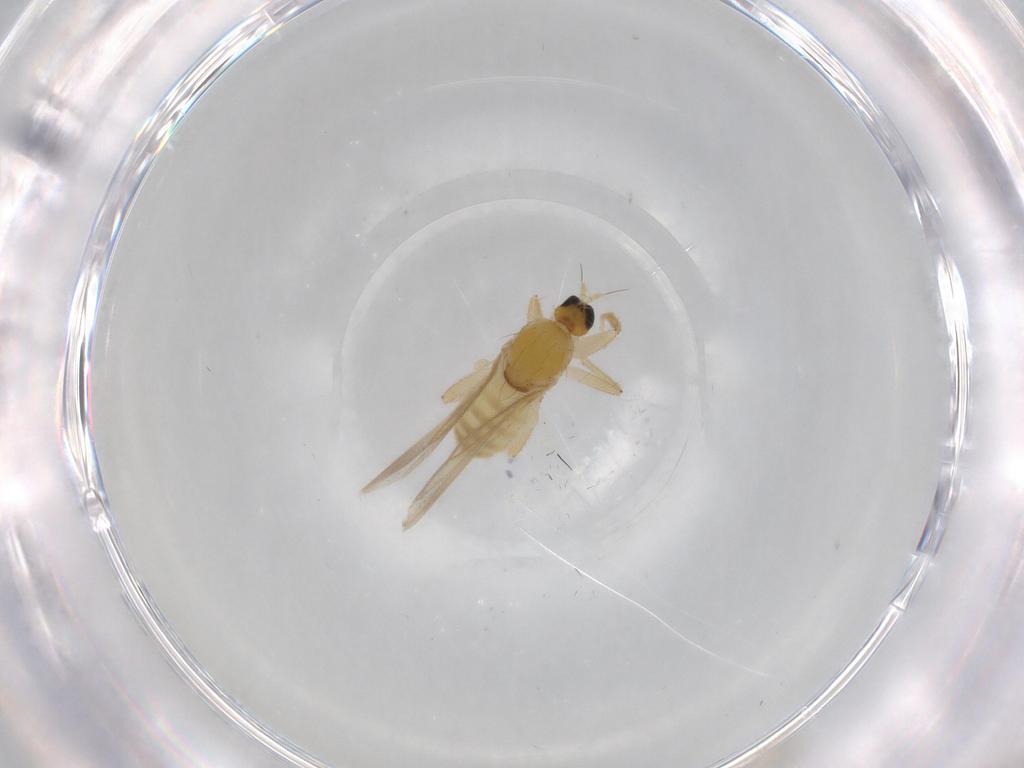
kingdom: Animalia
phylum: Arthropoda
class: Insecta
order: Diptera
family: Hybotidae
